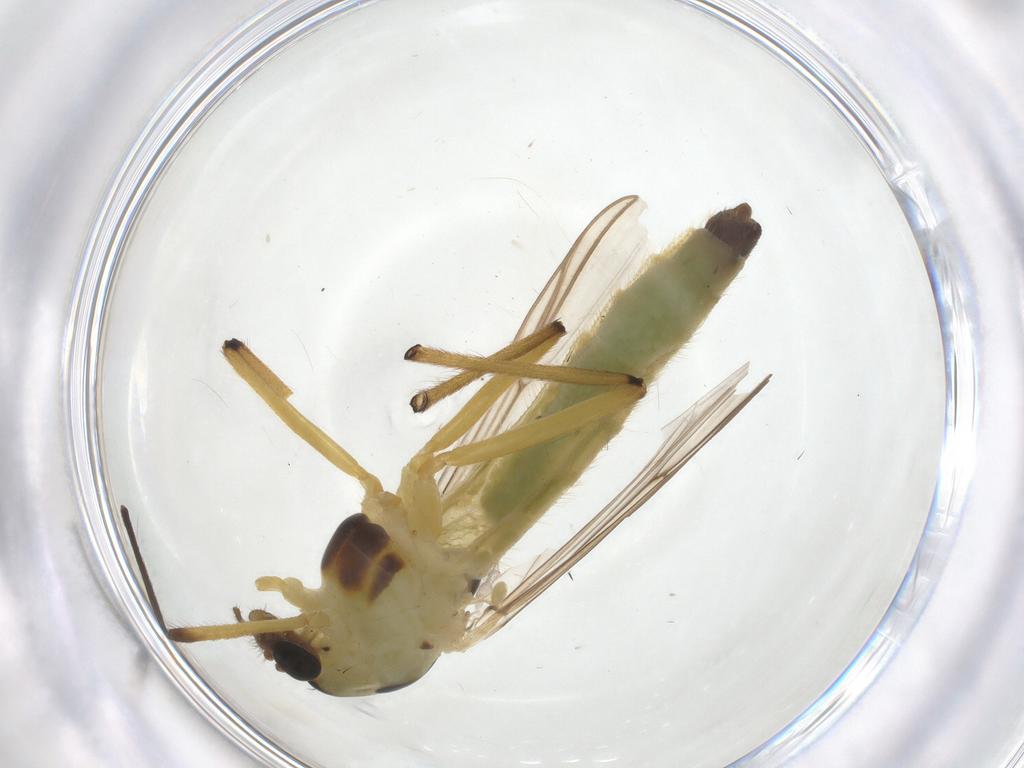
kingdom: Animalia
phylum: Arthropoda
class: Insecta
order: Diptera
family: Chironomidae
